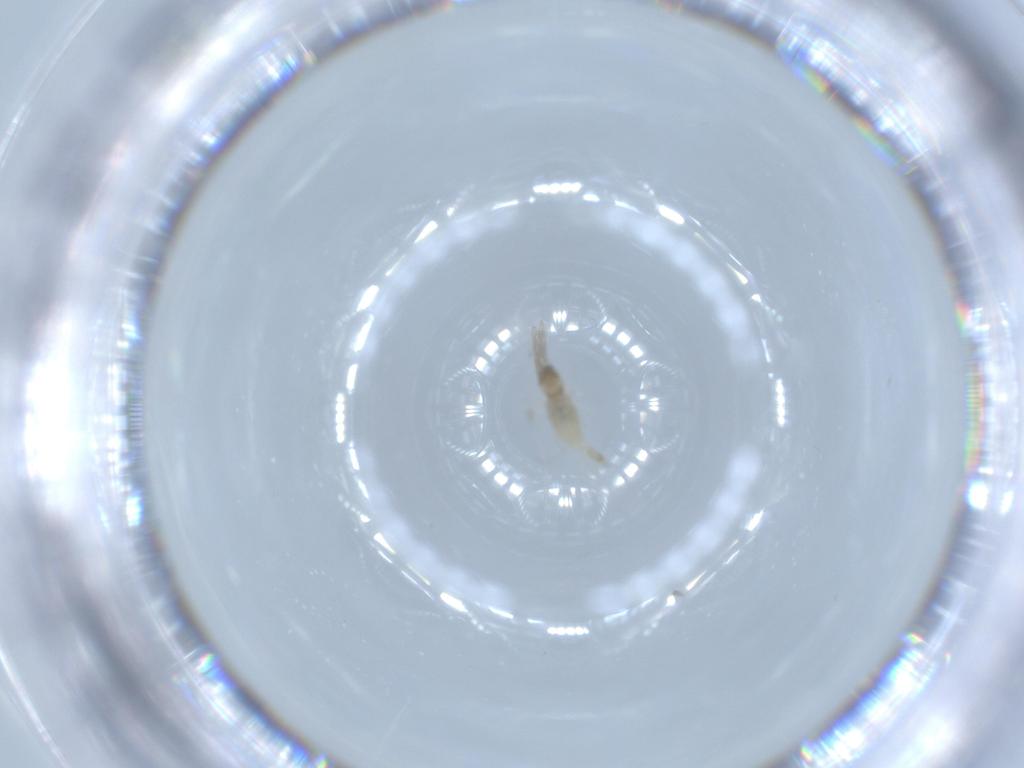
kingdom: Animalia
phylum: Arthropoda
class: Insecta
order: Diptera
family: Cecidomyiidae
